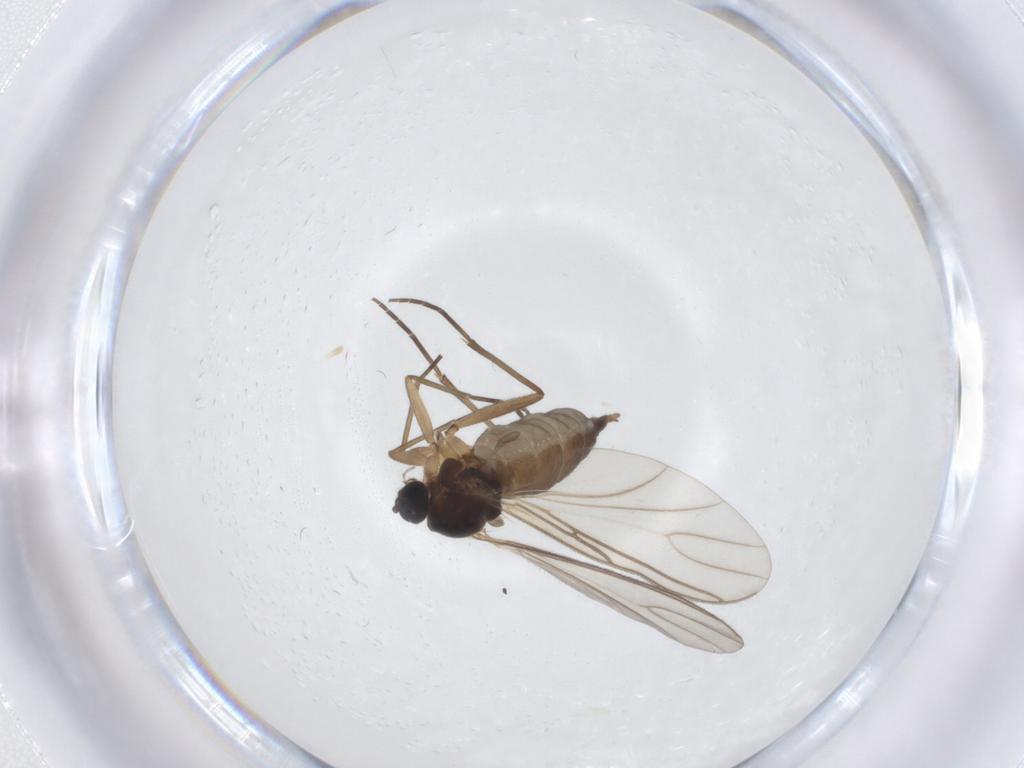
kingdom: Animalia
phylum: Arthropoda
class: Insecta
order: Diptera
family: Sciaridae
